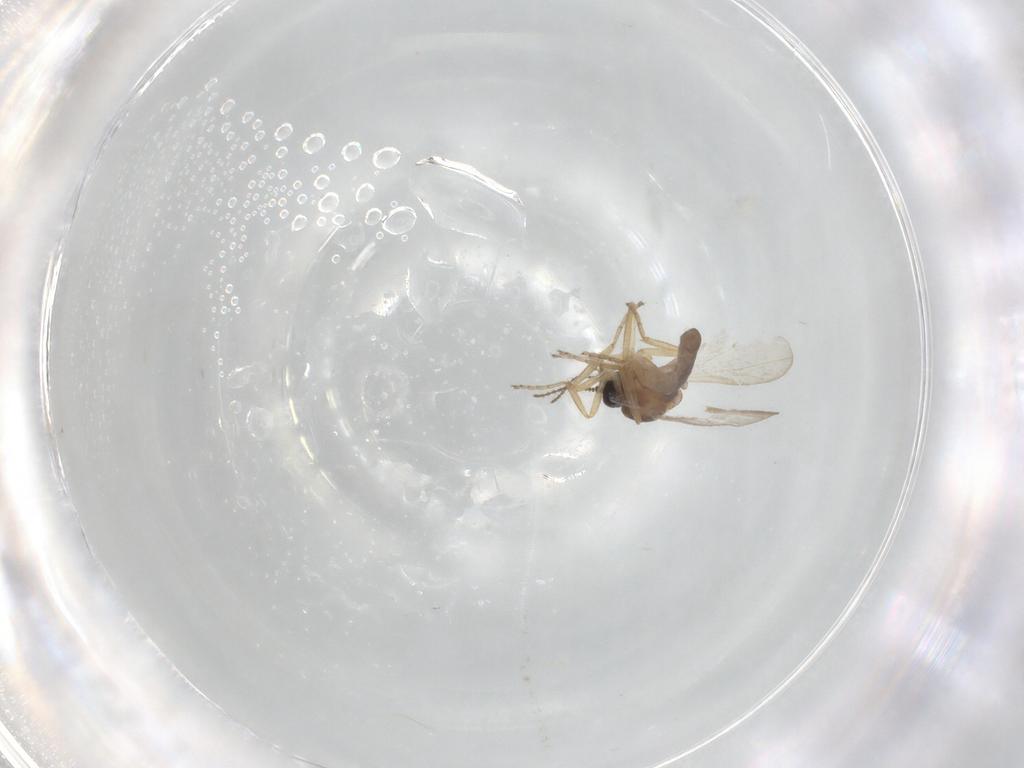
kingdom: Animalia
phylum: Arthropoda
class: Insecta
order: Diptera
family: Ceratopogonidae
